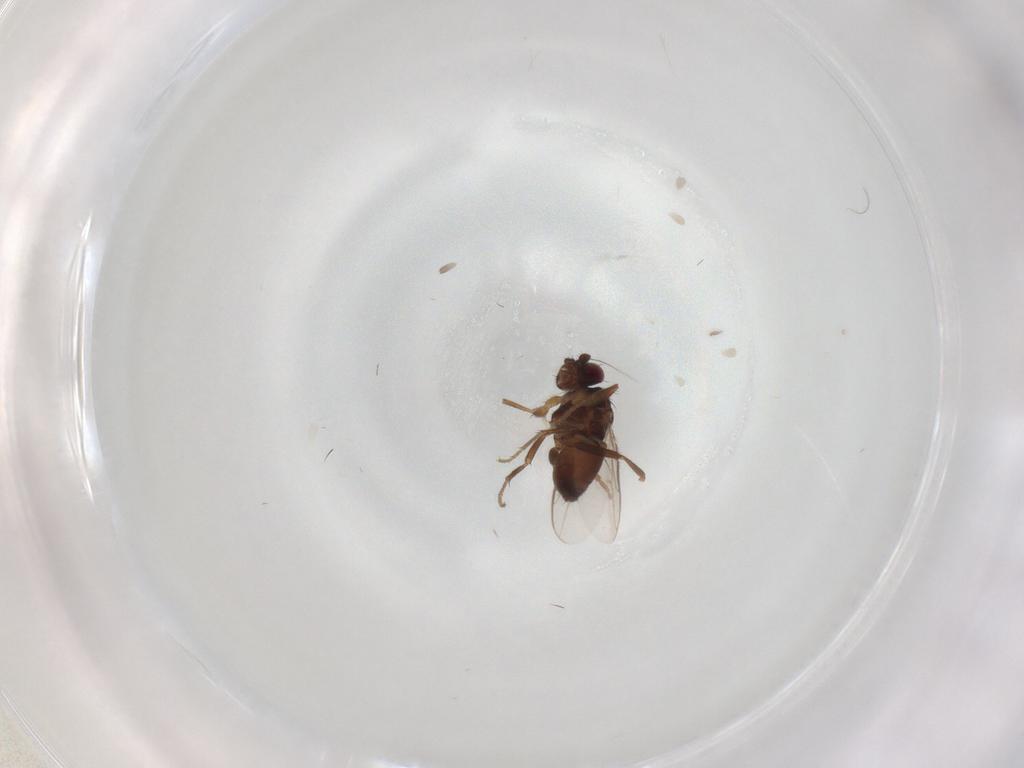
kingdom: Animalia
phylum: Arthropoda
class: Insecta
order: Diptera
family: Sphaeroceridae
